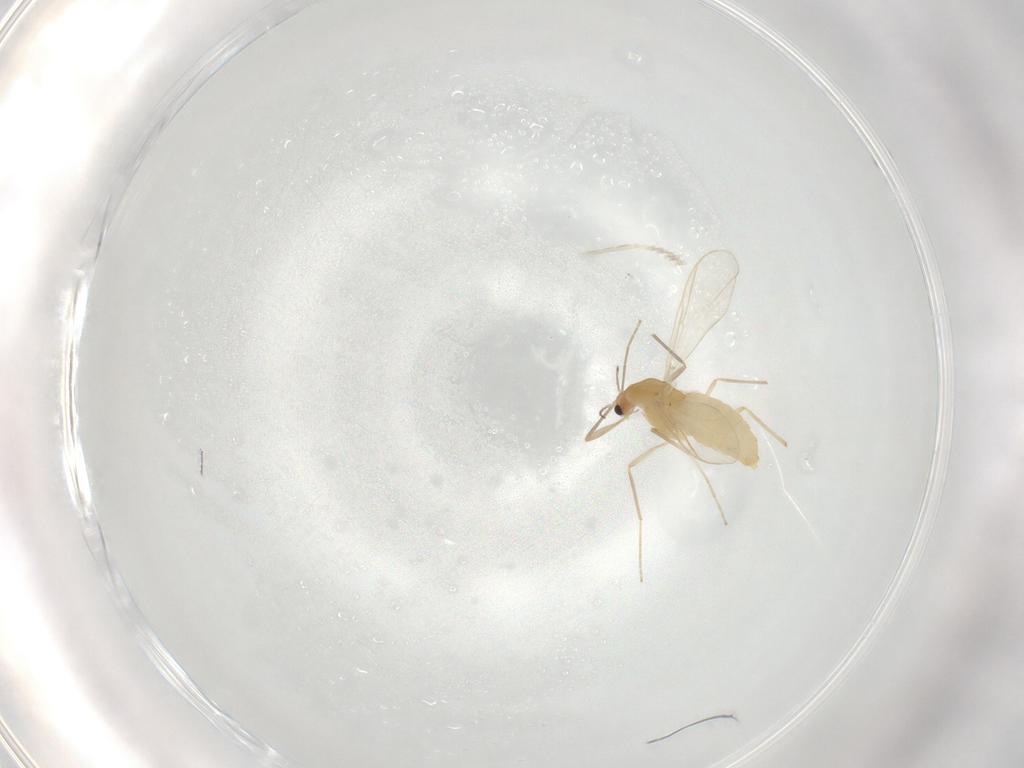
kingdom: Animalia
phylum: Arthropoda
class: Insecta
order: Diptera
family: Chironomidae
